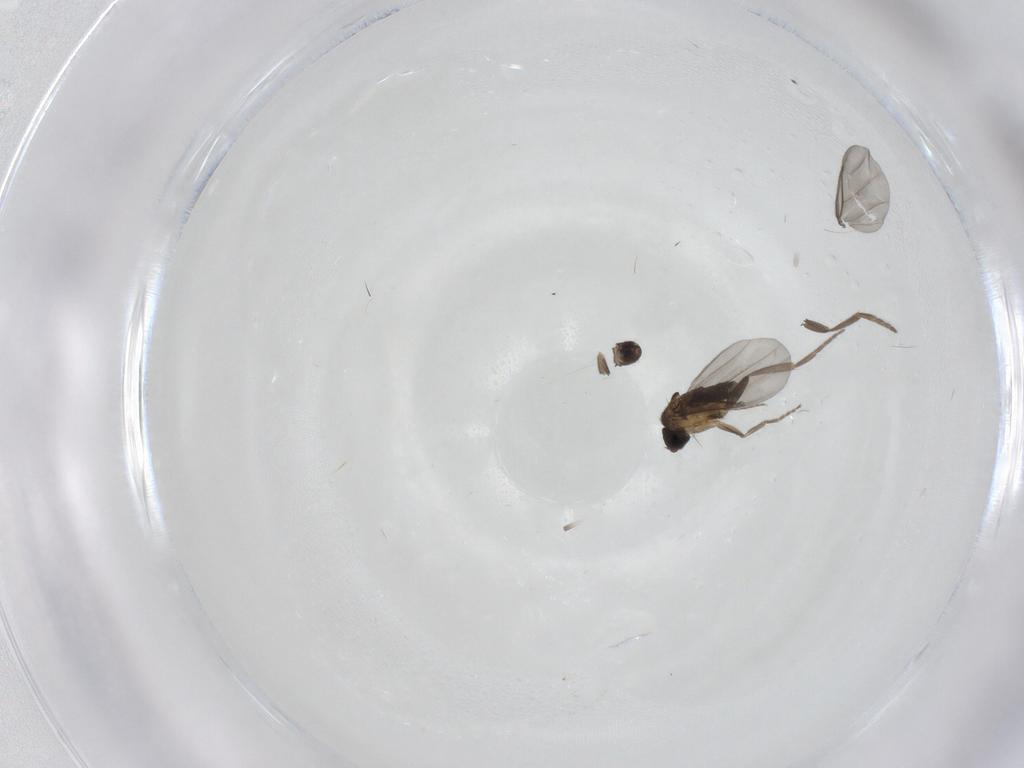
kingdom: Animalia
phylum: Arthropoda
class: Insecta
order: Diptera
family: Phoridae
